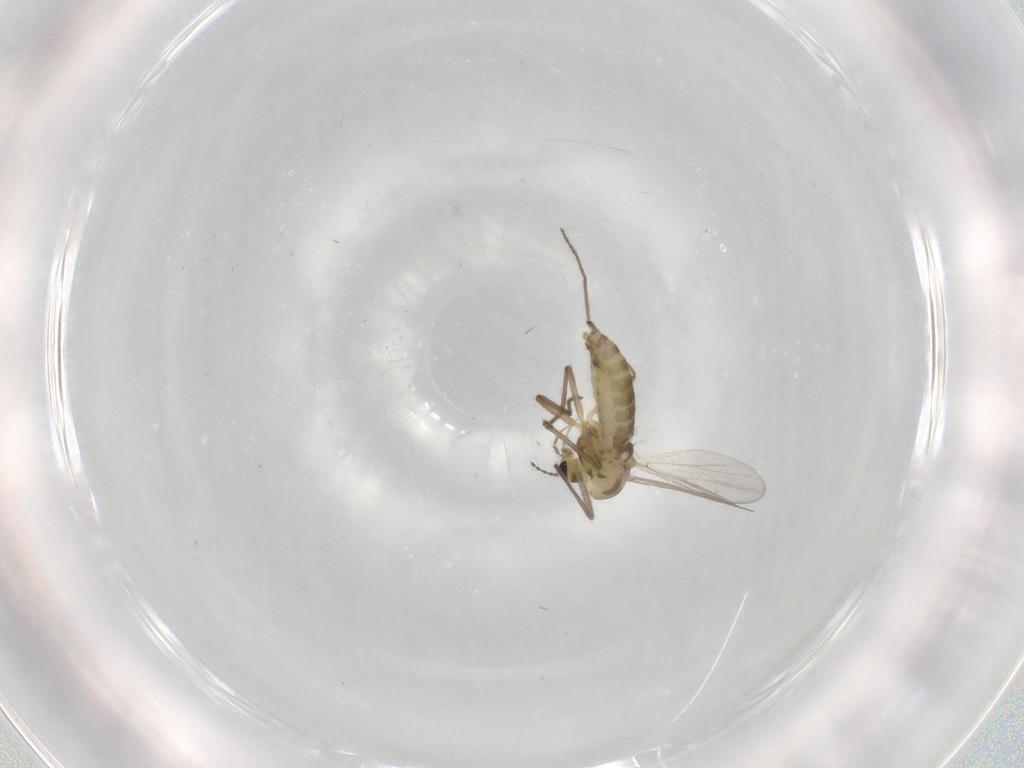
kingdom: Animalia
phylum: Arthropoda
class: Insecta
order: Diptera
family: Chironomidae
